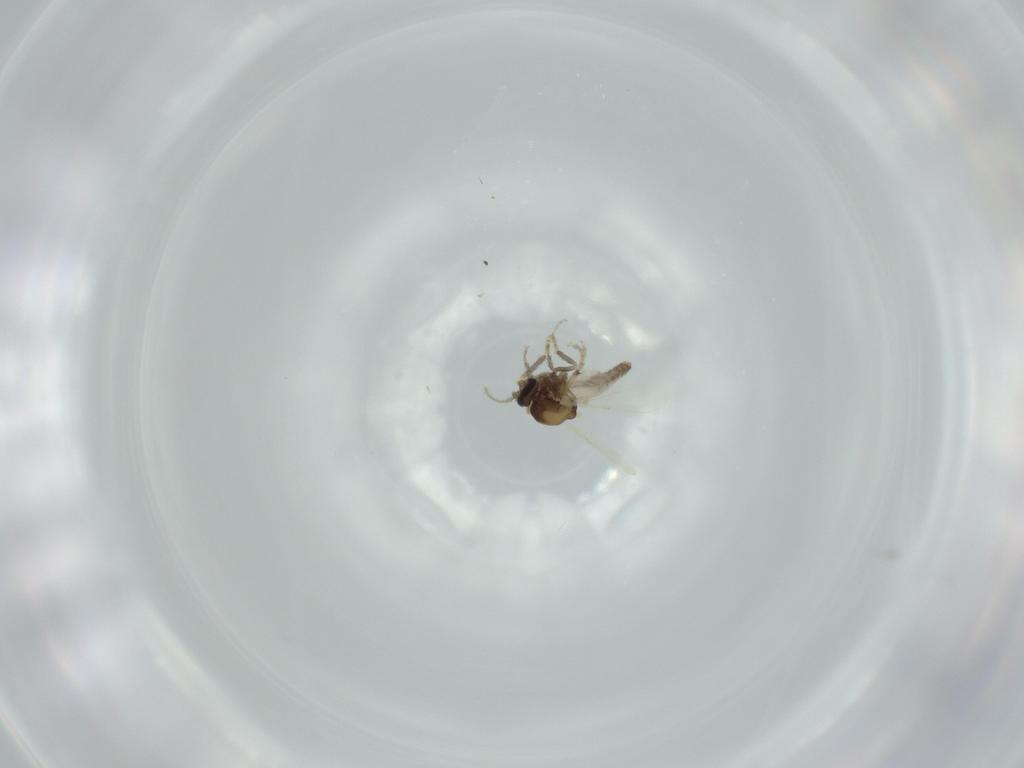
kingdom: Animalia
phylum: Arthropoda
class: Insecta
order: Diptera
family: Ceratopogonidae
